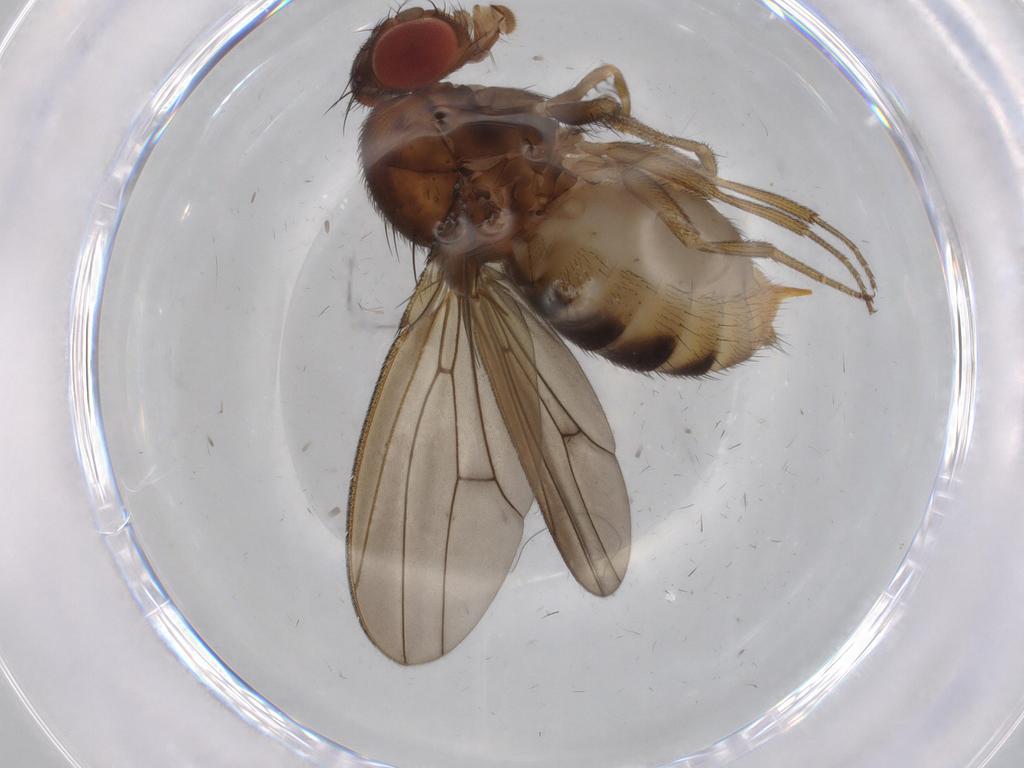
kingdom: Animalia
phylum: Arthropoda
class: Insecta
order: Diptera
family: Drosophilidae
